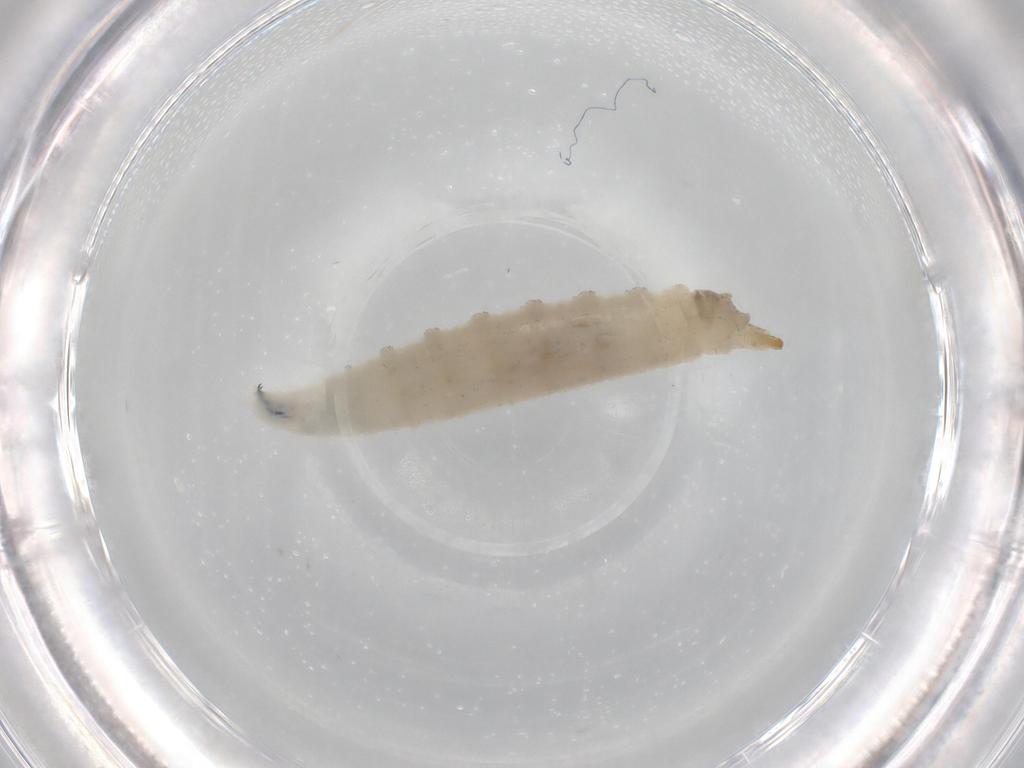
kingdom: Animalia
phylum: Arthropoda
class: Insecta
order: Diptera
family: Drosophilidae
